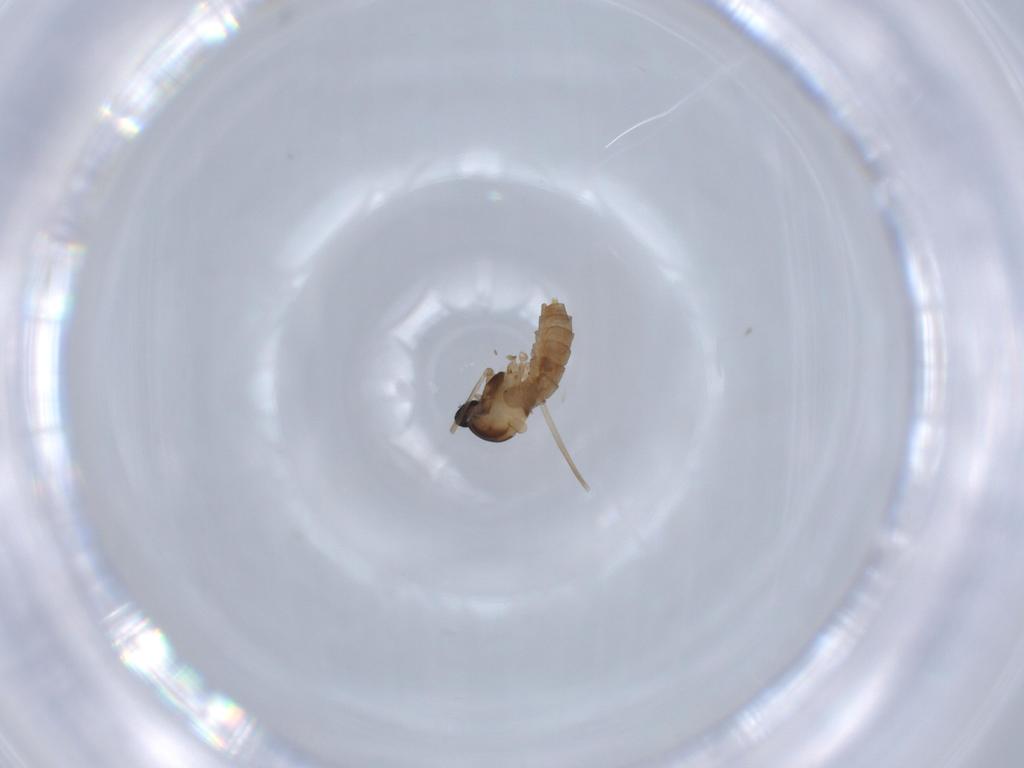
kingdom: Animalia
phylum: Arthropoda
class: Insecta
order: Diptera
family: Cecidomyiidae
